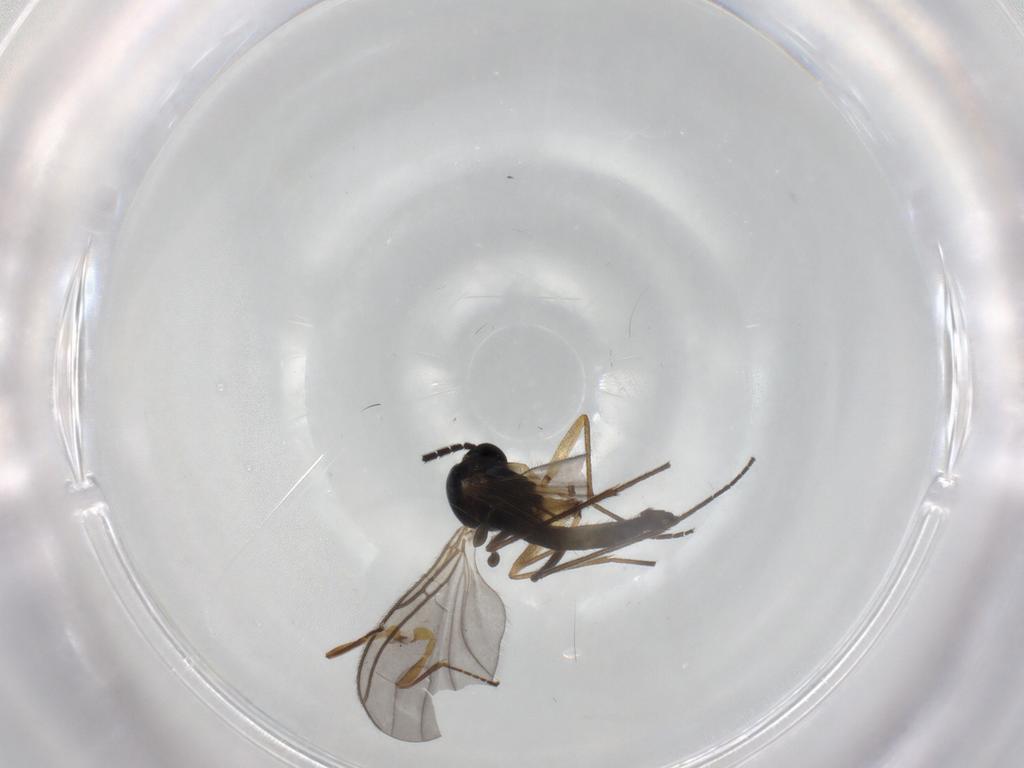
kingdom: Animalia
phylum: Arthropoda
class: Insecta
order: Diptera
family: Sciaridae
